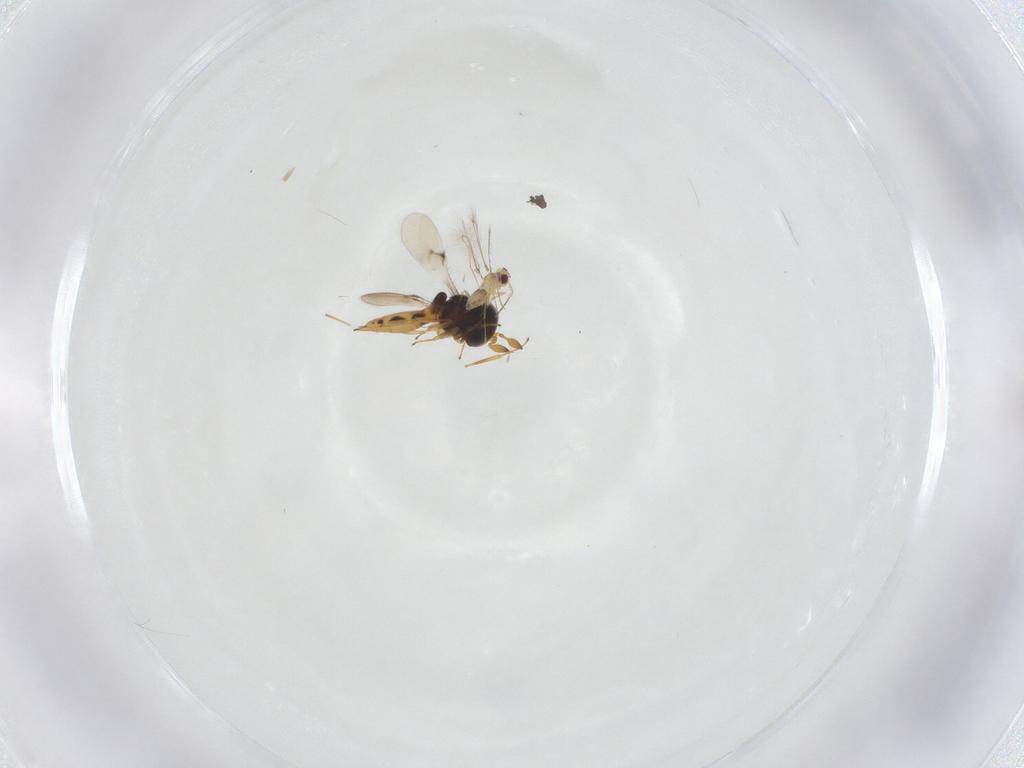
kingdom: Animalia
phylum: Arthropoda
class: Insecta
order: Hymenoptera
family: Scelionidae
